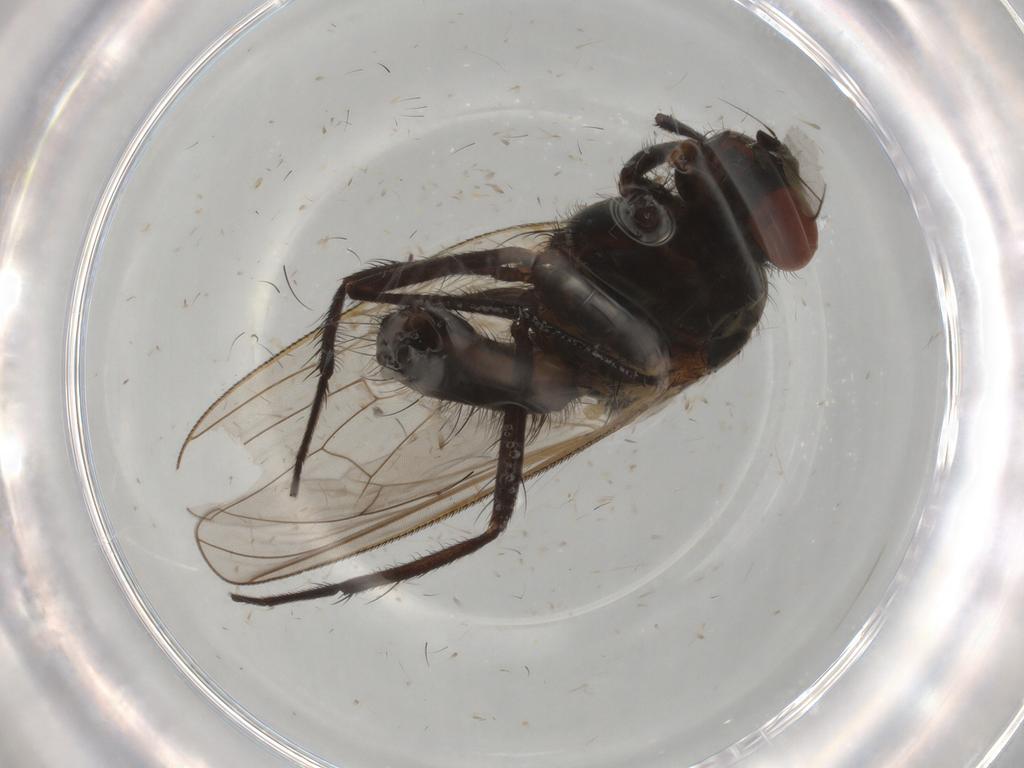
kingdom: Animalia
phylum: Arthropoda
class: Insecta
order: Diptera
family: Anthomyiidae
